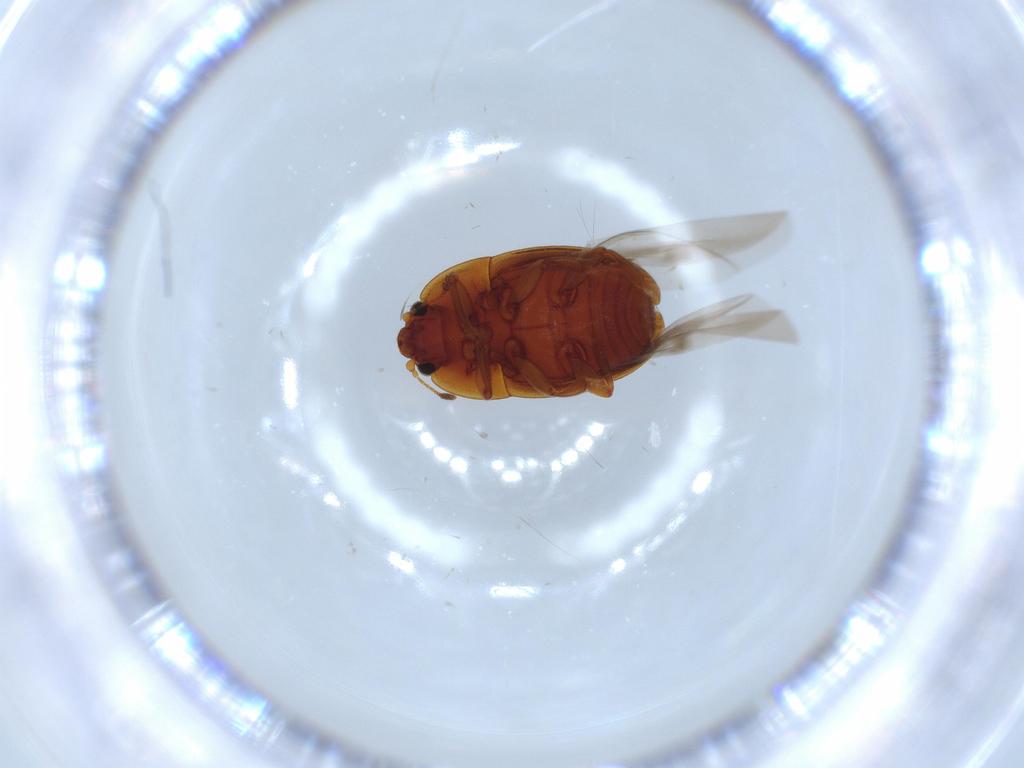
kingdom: Animalia
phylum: Arthropoda
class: Insecta
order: Coleoptera
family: Nitidulidae
